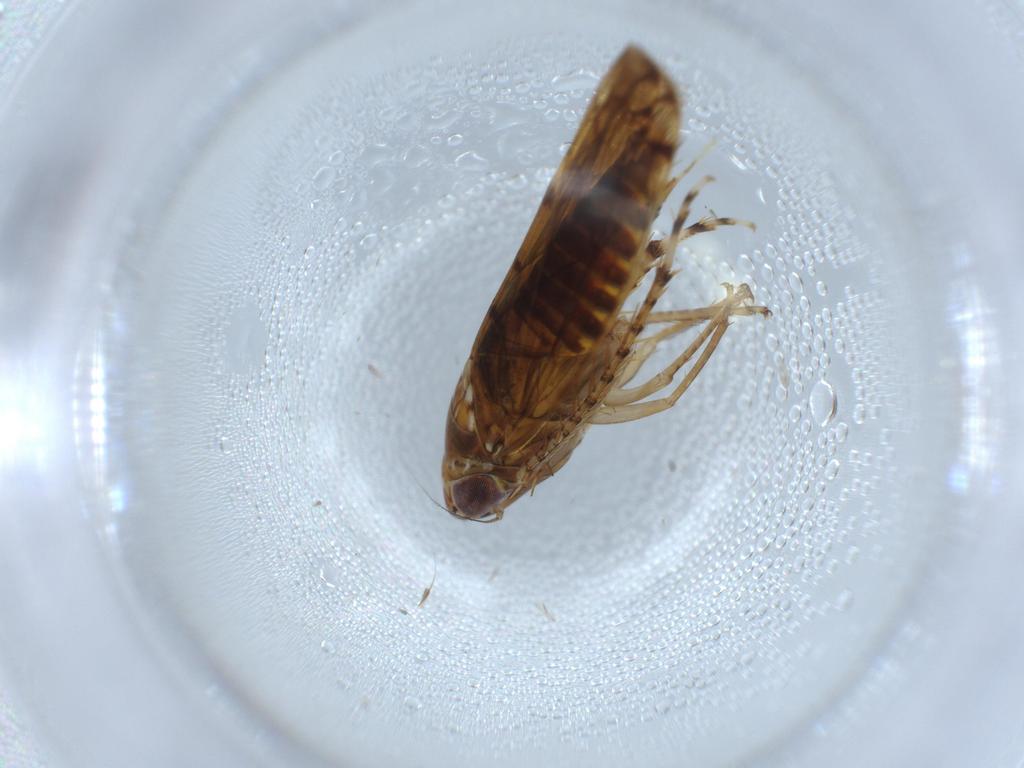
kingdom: Animalia
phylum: Arthropoda
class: Insecta
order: Hemiptera
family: Cicadellidae
